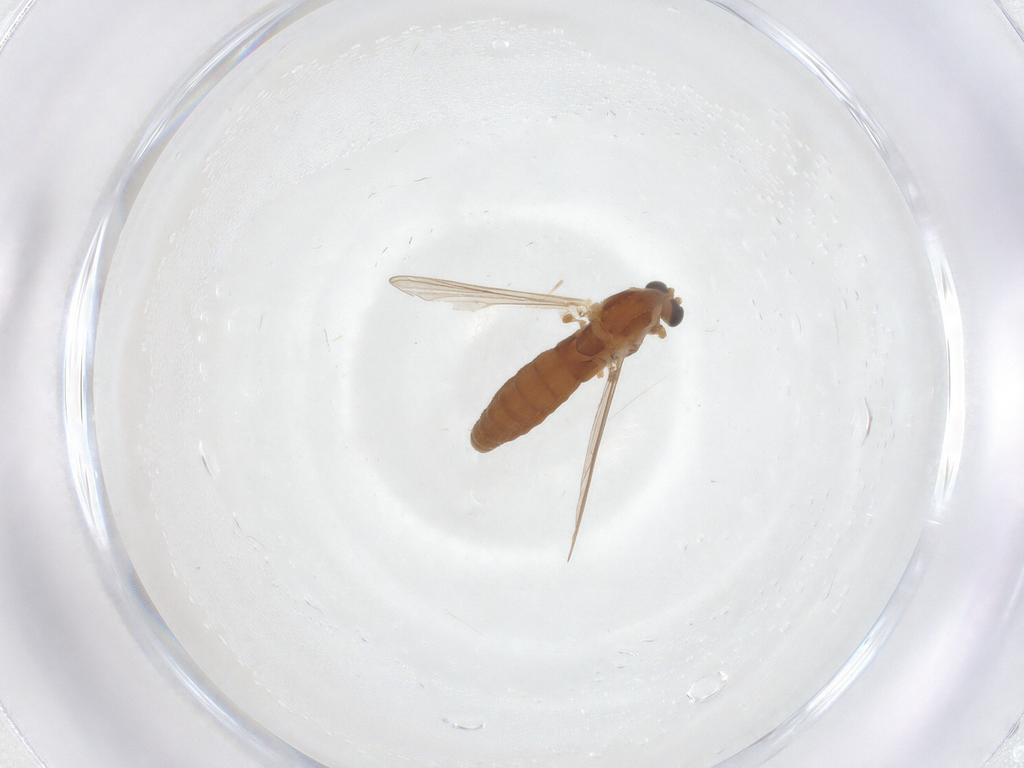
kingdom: Animalia
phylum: Arthropoda
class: Insecta
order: Diptera
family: Chironomidae
